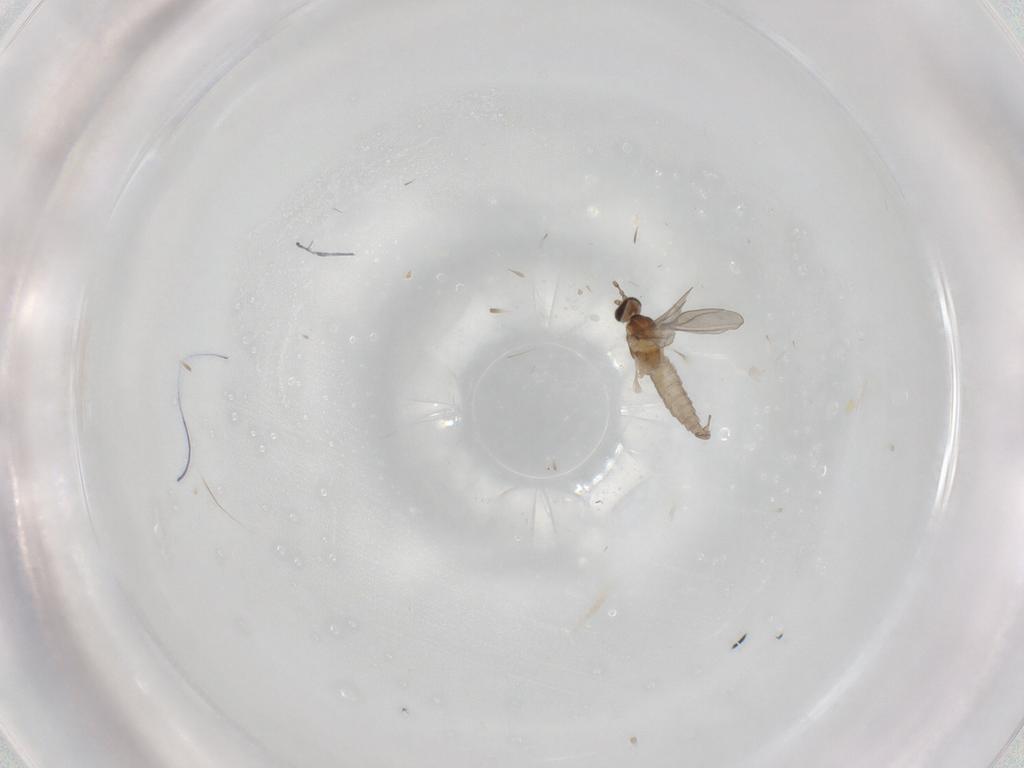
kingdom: Animalia
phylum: Arthropoda
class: Insecta
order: Diptera
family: Cecidomyiidae
